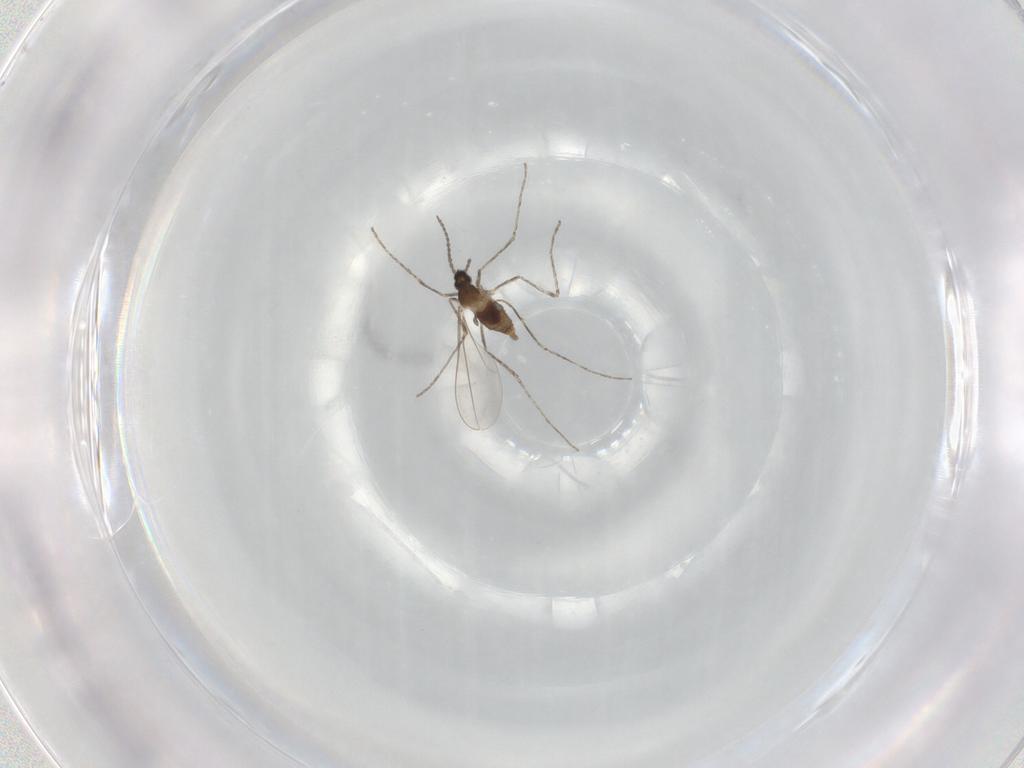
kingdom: Animalia
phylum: Arthropoda
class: Insecta
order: Diptera
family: Cecidomyiidae
